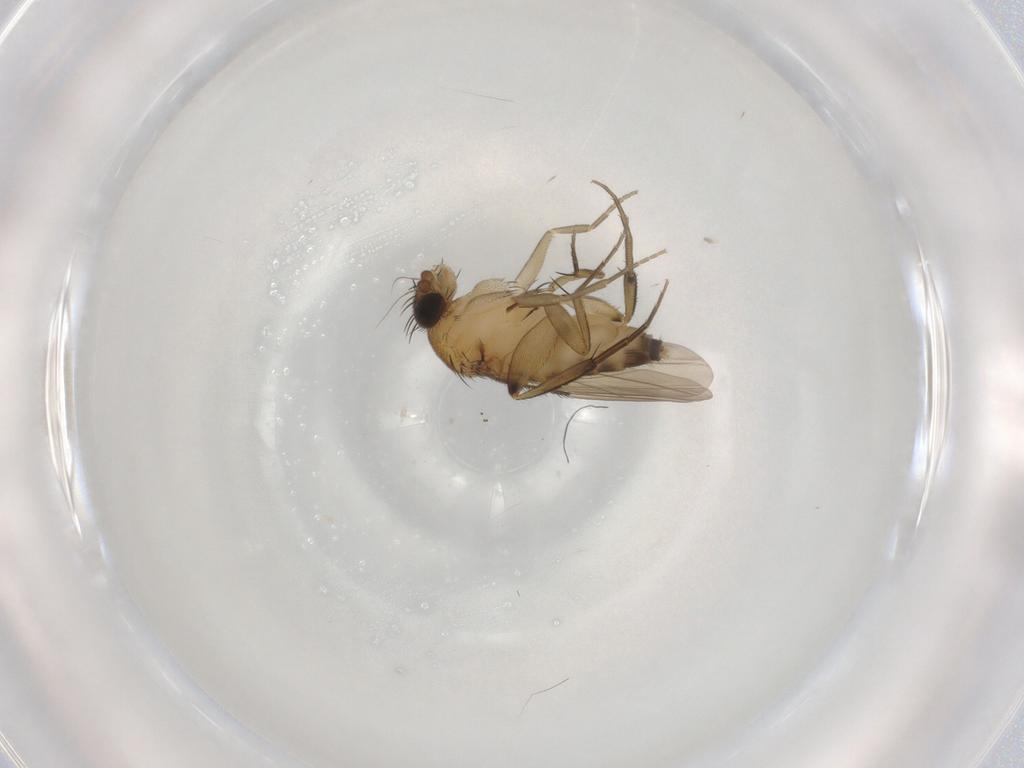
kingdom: Animalia
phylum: Arthropoda
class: Insecta
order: Diptera
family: Phoridae
